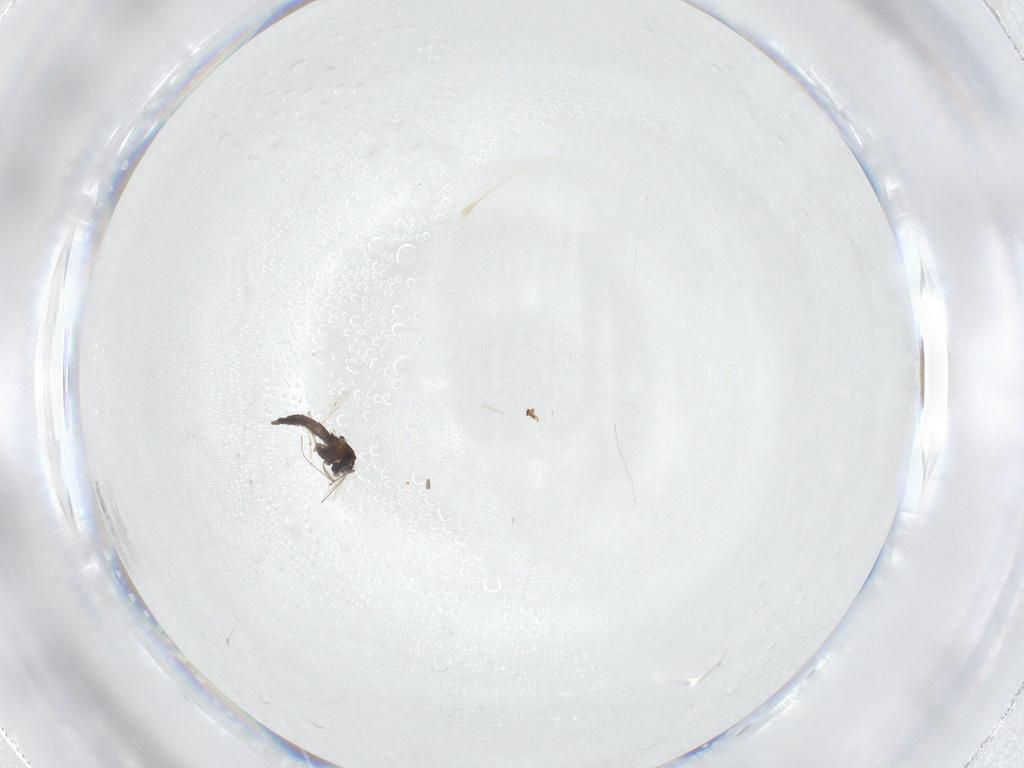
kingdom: Animalia
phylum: Arthropoda
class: Insecta
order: Diptera
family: Chironomidae
